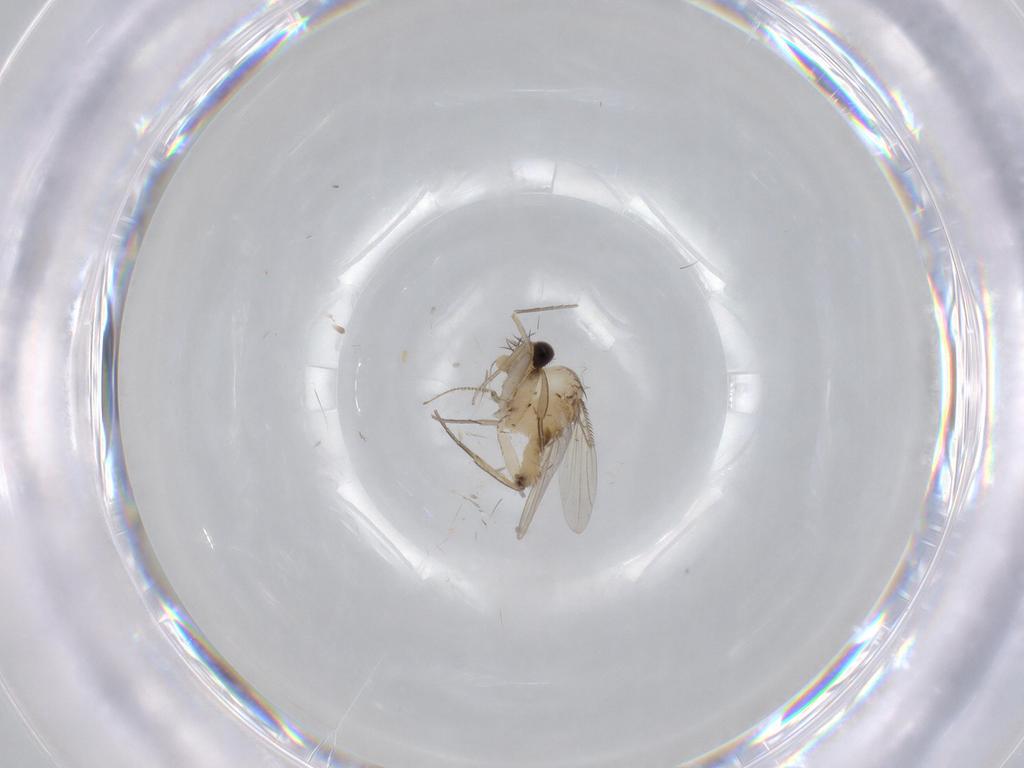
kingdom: Animalia
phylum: Arthropoda
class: Insecta
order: Diptera
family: Phoridae
